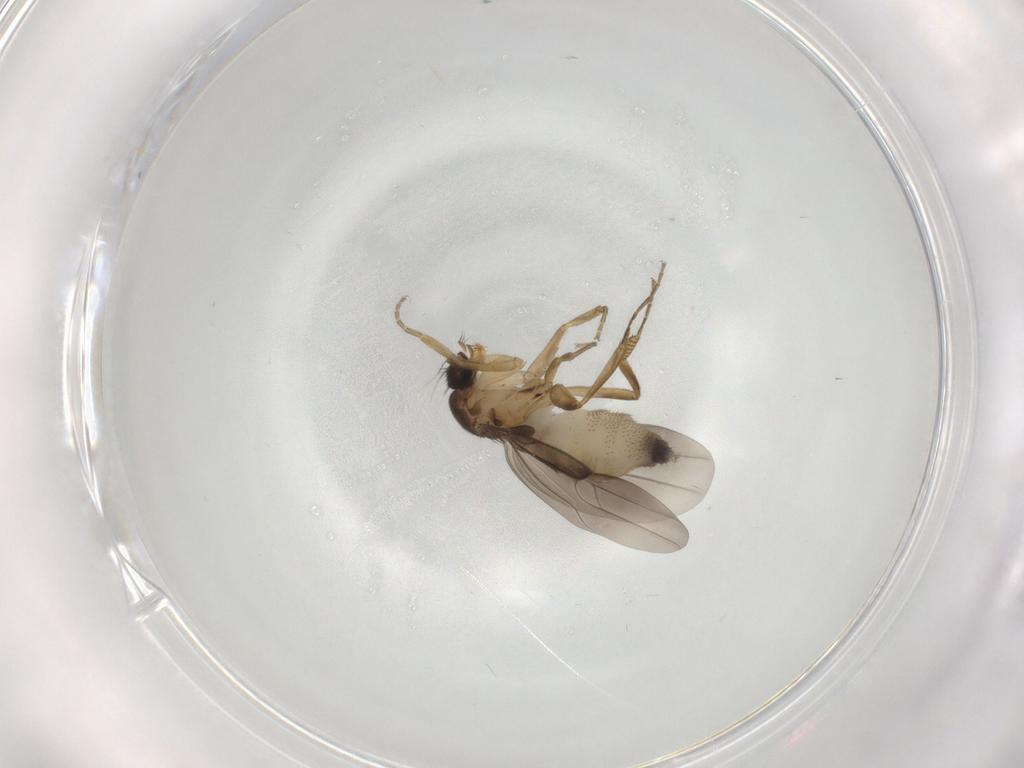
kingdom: Animalia
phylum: Arthropoda
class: Insecta
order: Diptera
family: Phoridae
